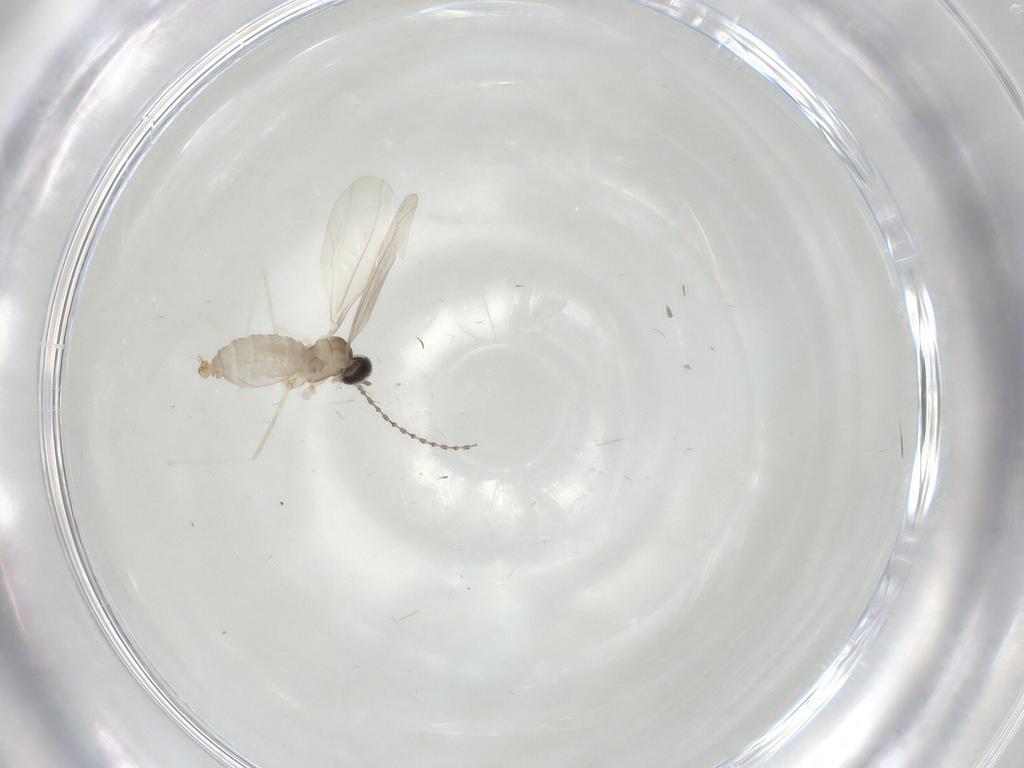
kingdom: Animalia
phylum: Arthropoda
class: Insecta
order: Diptera
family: Cecidomyiidae
